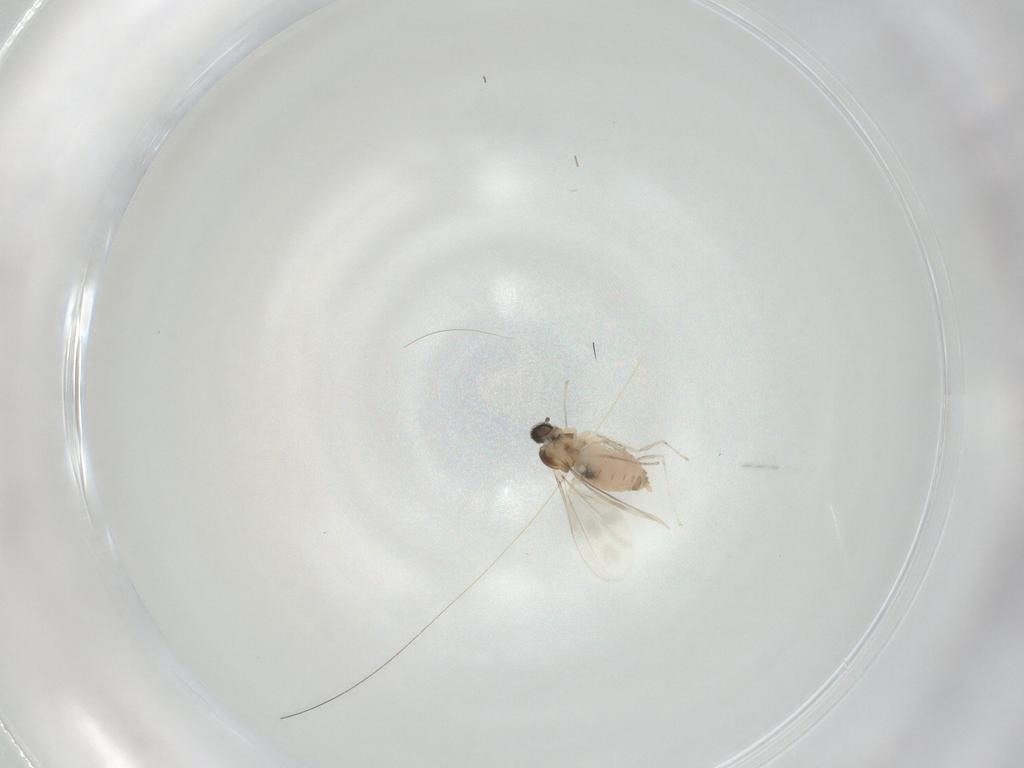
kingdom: Animalia
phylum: Arthropoda
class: Insecta
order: Diptera
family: Cecidomyiidae
